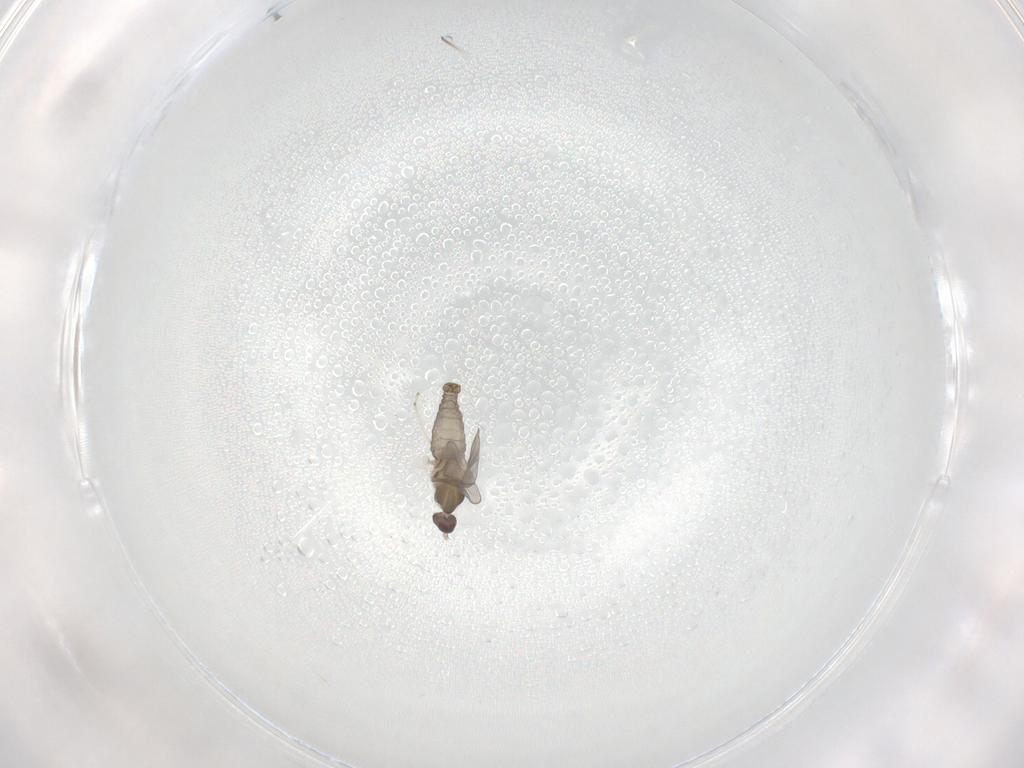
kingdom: Animalia
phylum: Arthropoda
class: Insecta
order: Diptera
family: Cecidomyiidae
